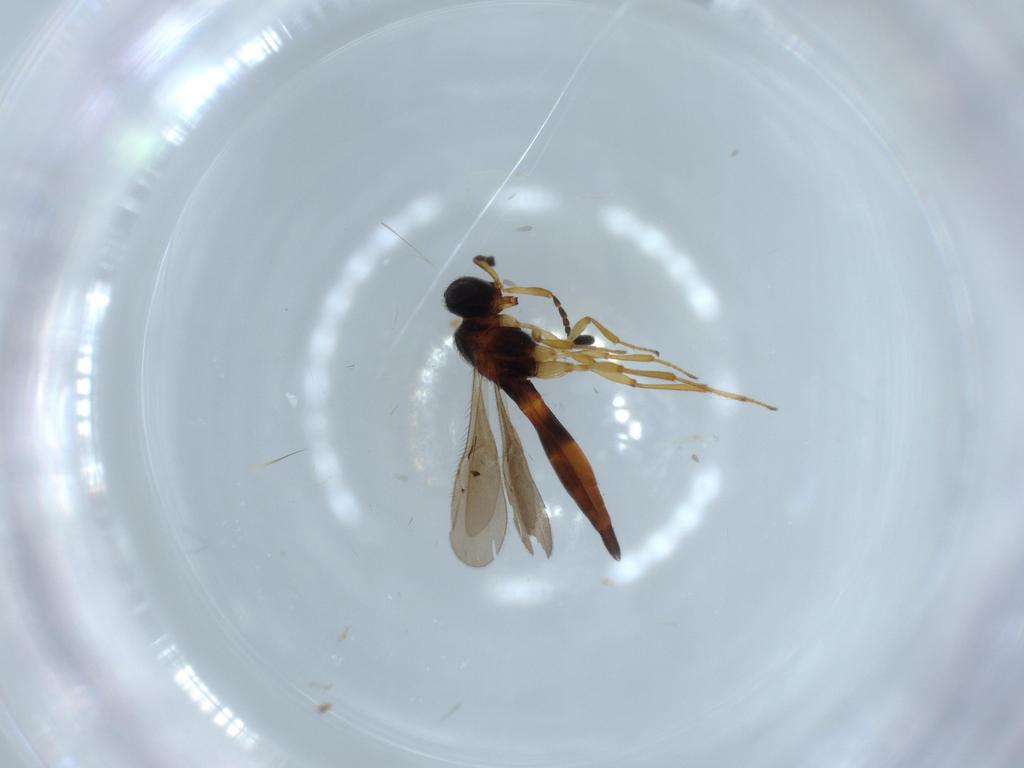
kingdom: Animalia
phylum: Arthropoda
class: Insecta
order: Hymenoptera
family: Scelionidae
